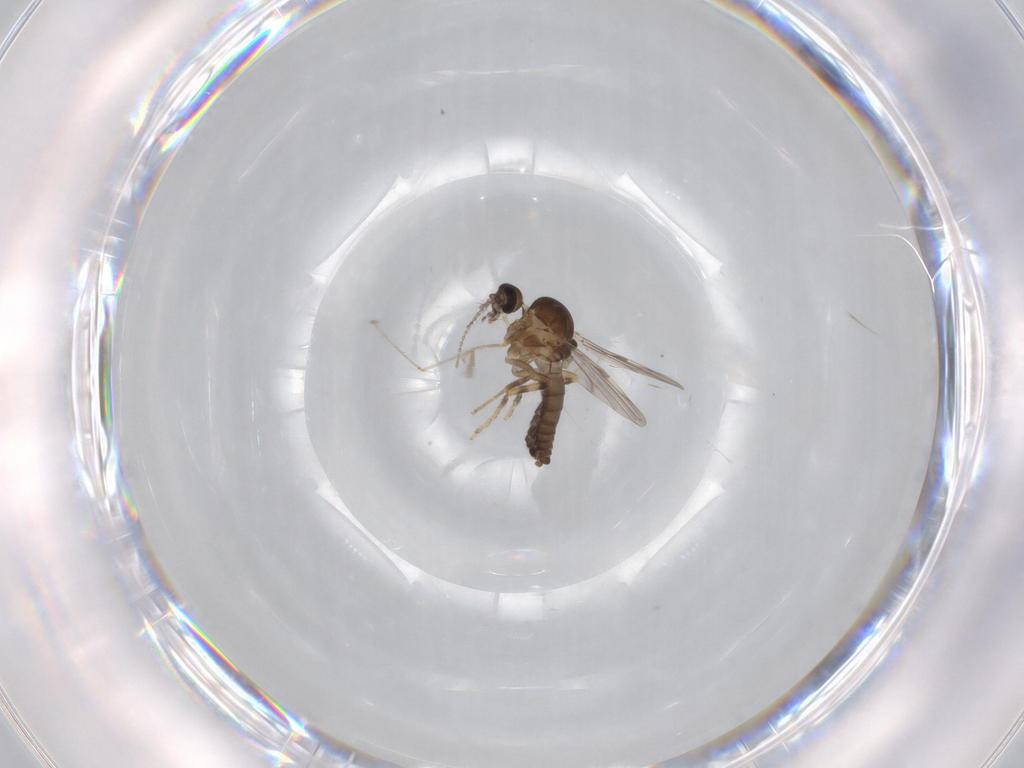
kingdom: Animalia
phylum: Arthropoda
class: Insecta
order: Diptera
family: Ceratopogonidae
